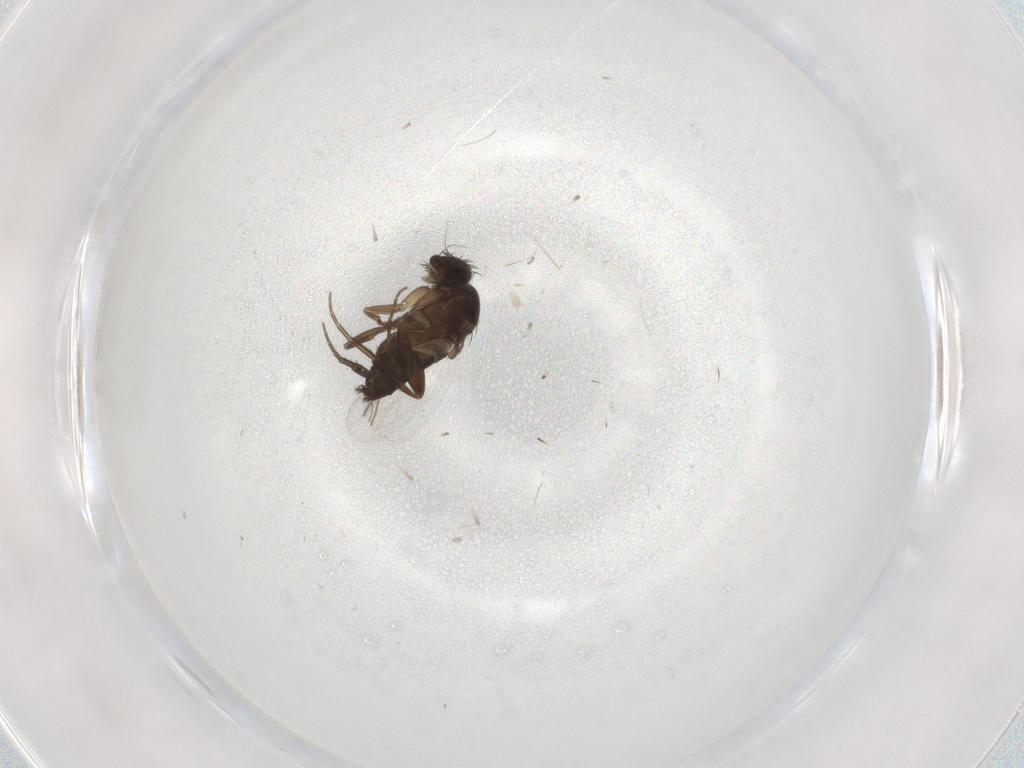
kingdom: Animalia
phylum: Arthropoda
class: Insecta
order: Diptera
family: Phoridae
